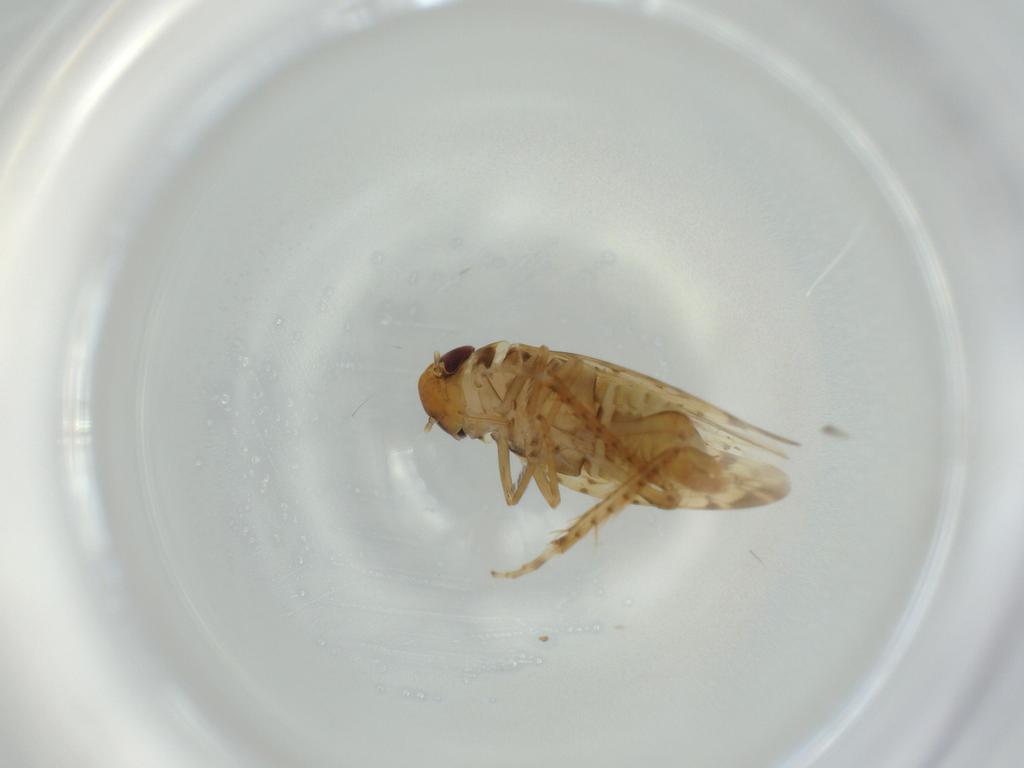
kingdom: Animalia
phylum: Arthropoda
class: Insecta
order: Hemiptera
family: Cicadellidae
